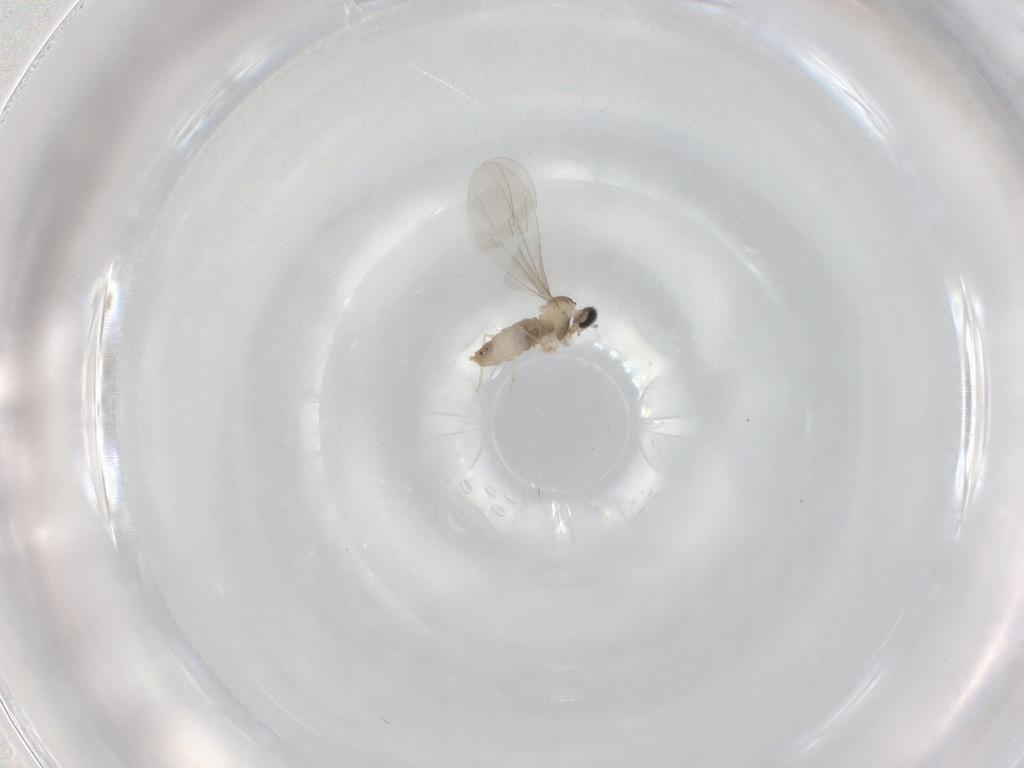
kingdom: Animalia
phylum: Arthropoda
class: Insecta
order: Diptera
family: Cecidomyiidae
